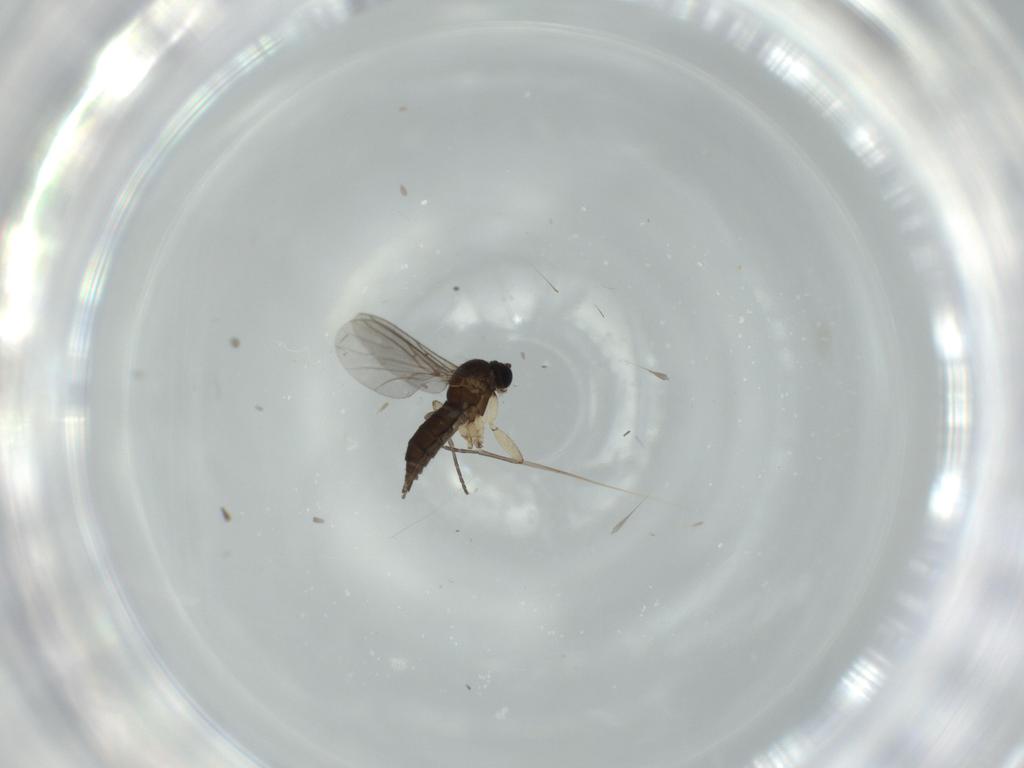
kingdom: Animalia
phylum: Arthropoda
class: Insecta
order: Diptera
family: Sciaridae
